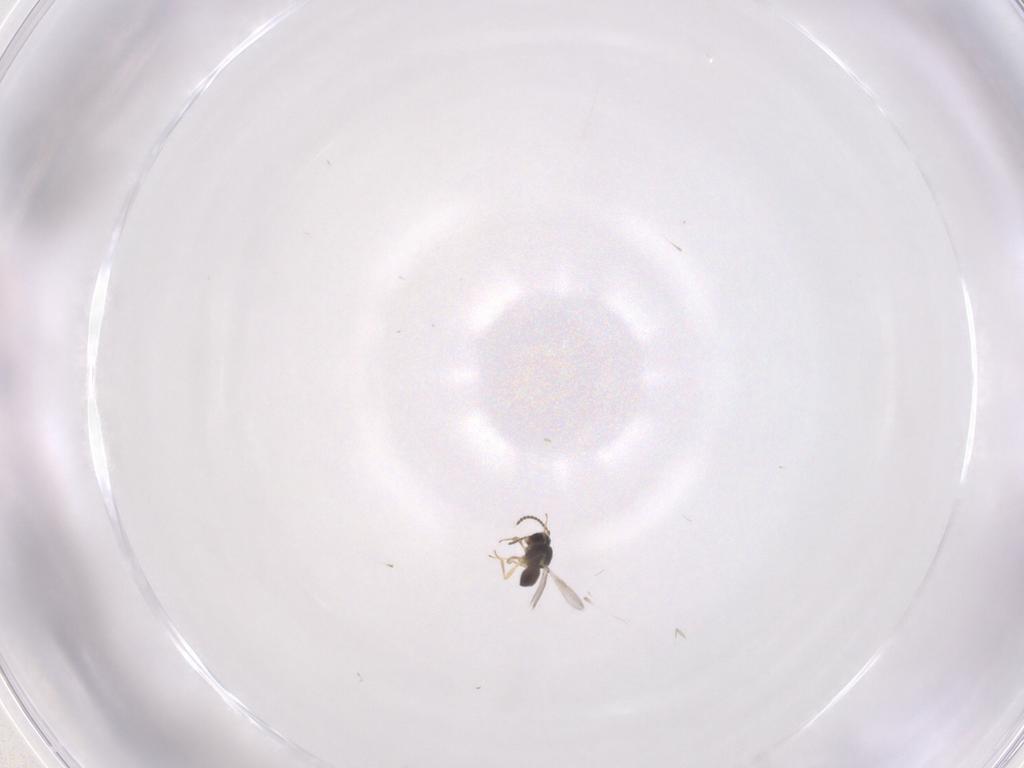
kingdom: Animalia
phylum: Arthropoda
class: Insecta
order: Hymenoptera
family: Scelionidae
